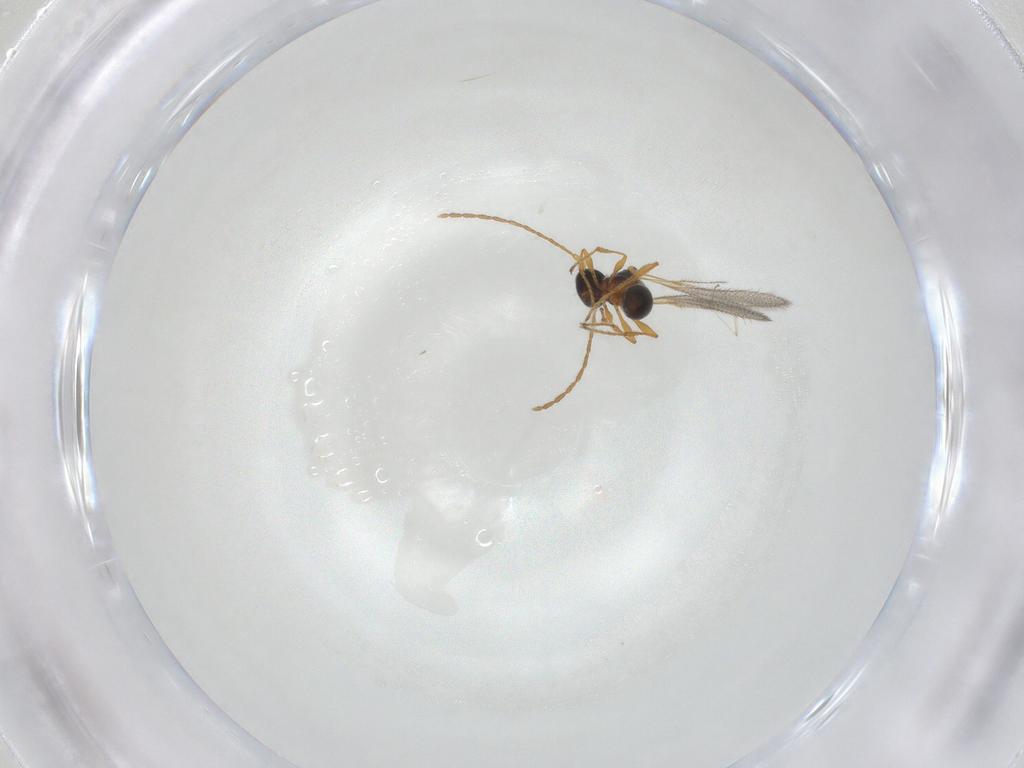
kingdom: Animalia
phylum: Arthropoda
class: Insecta
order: Hymenoptera
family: Diapriidae
